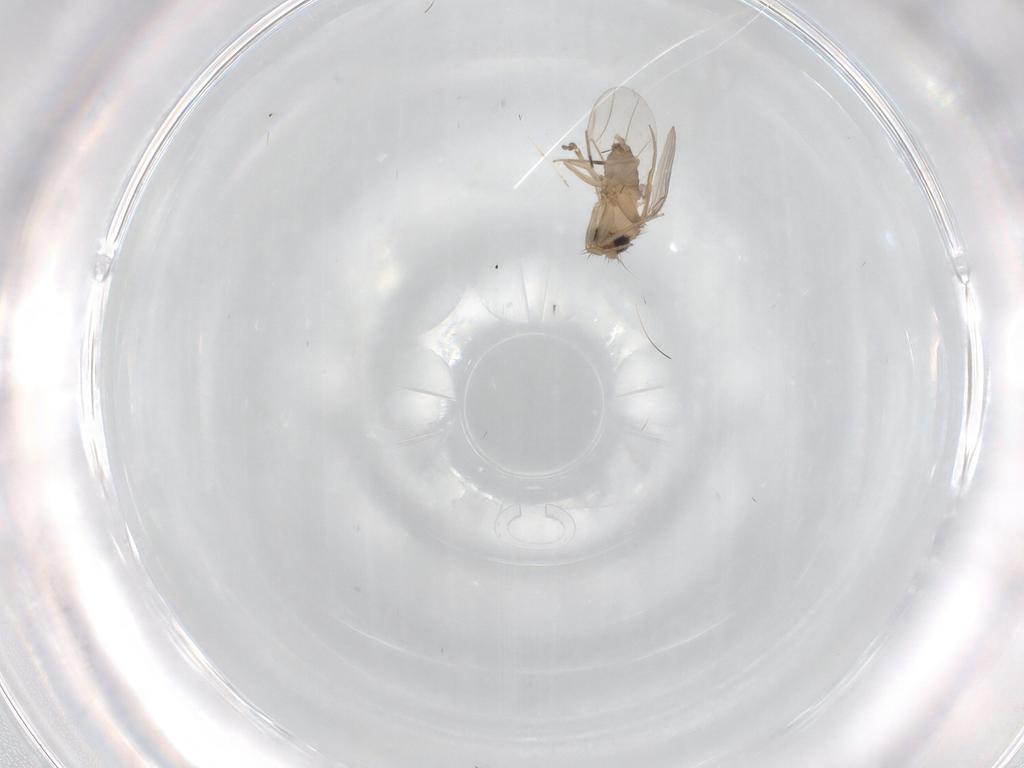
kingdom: Animalia
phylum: Arthropoda
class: Insecta
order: Diptera
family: Phoridae
